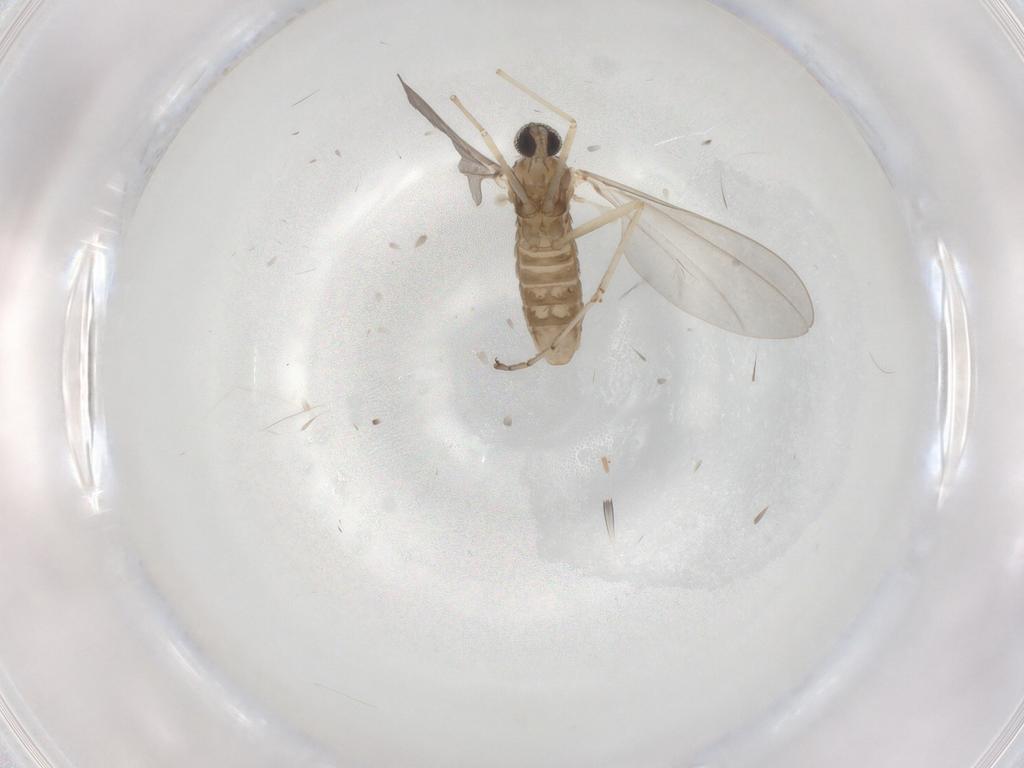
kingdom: Animalia
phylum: Arthropoda
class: Insecta
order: Diptera
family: Cecidomyiidae
